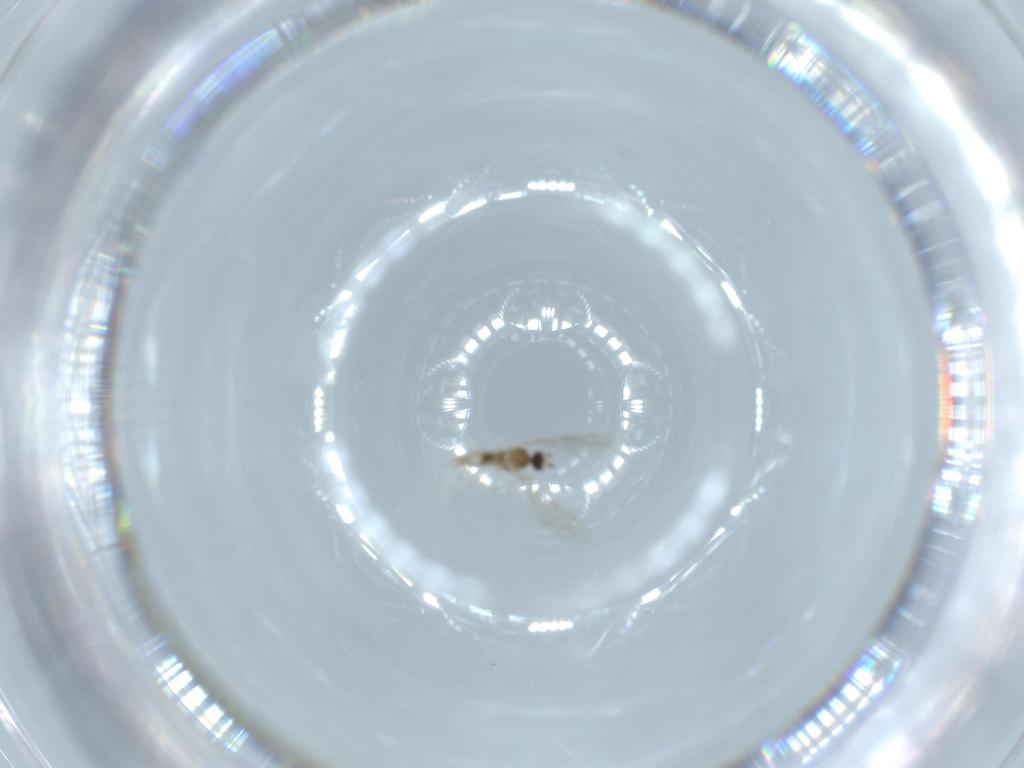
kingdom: Animalia
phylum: Arthropoda
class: Insecta
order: Diptera
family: Cecidomyiidae
